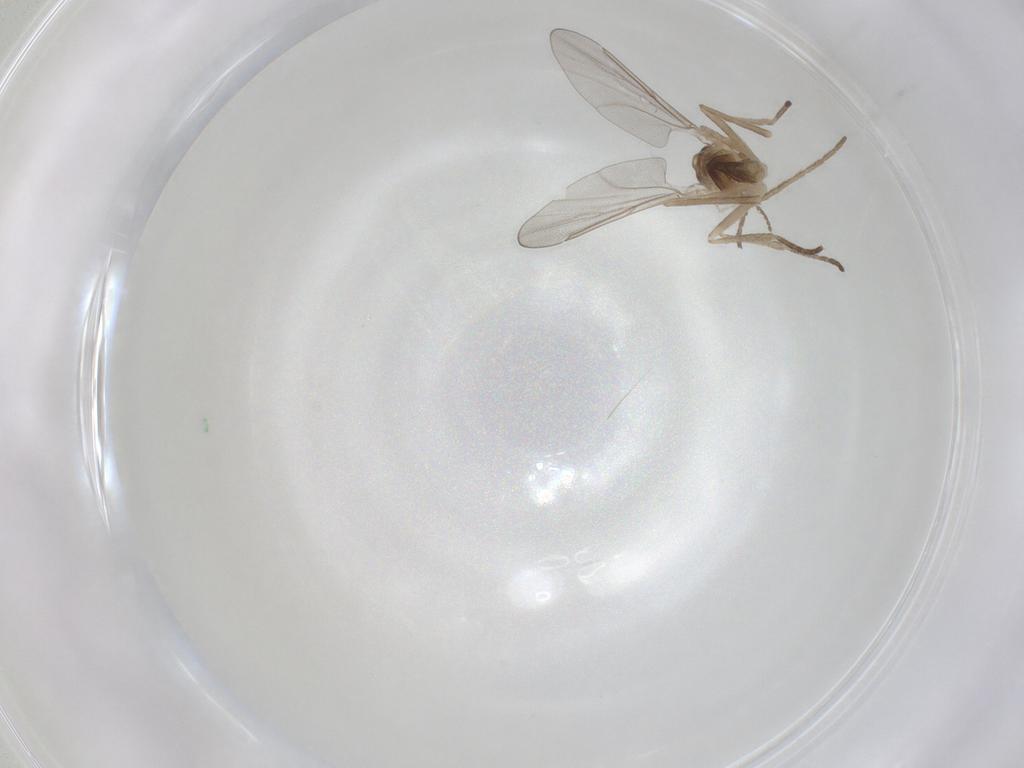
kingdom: Animalia
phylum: Arthropoda
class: Insecta
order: Diptera
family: Cecidomyiidae
